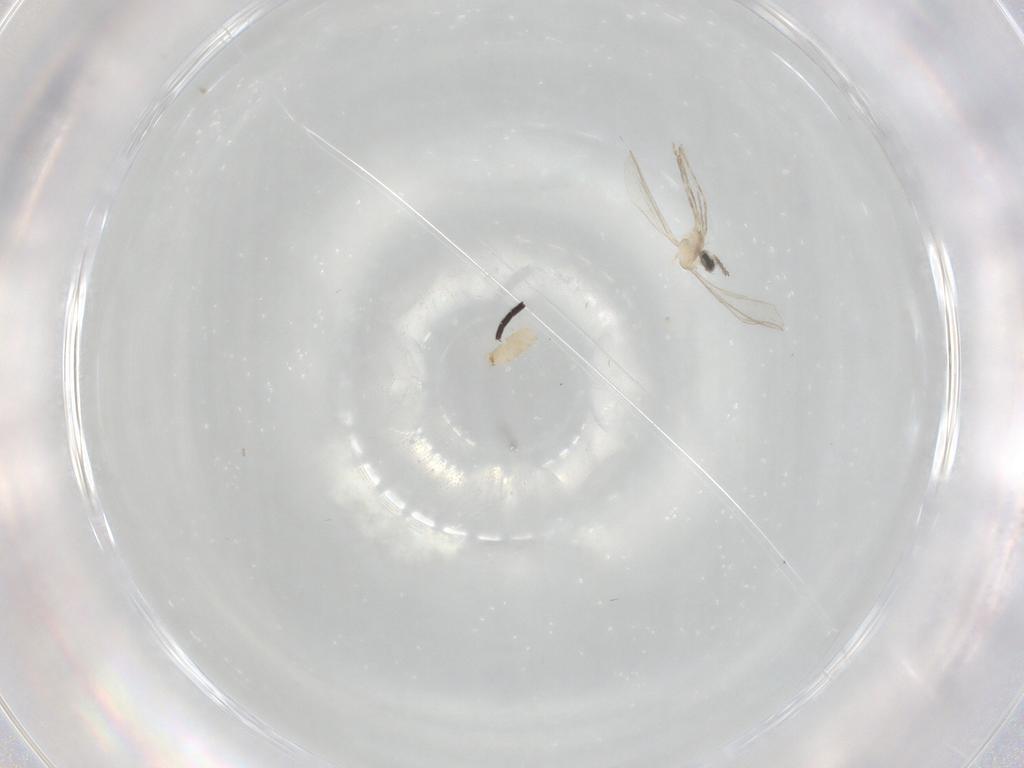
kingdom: Animalia
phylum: Arthropoda
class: Insecta
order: Diptera
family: Sciaridae
